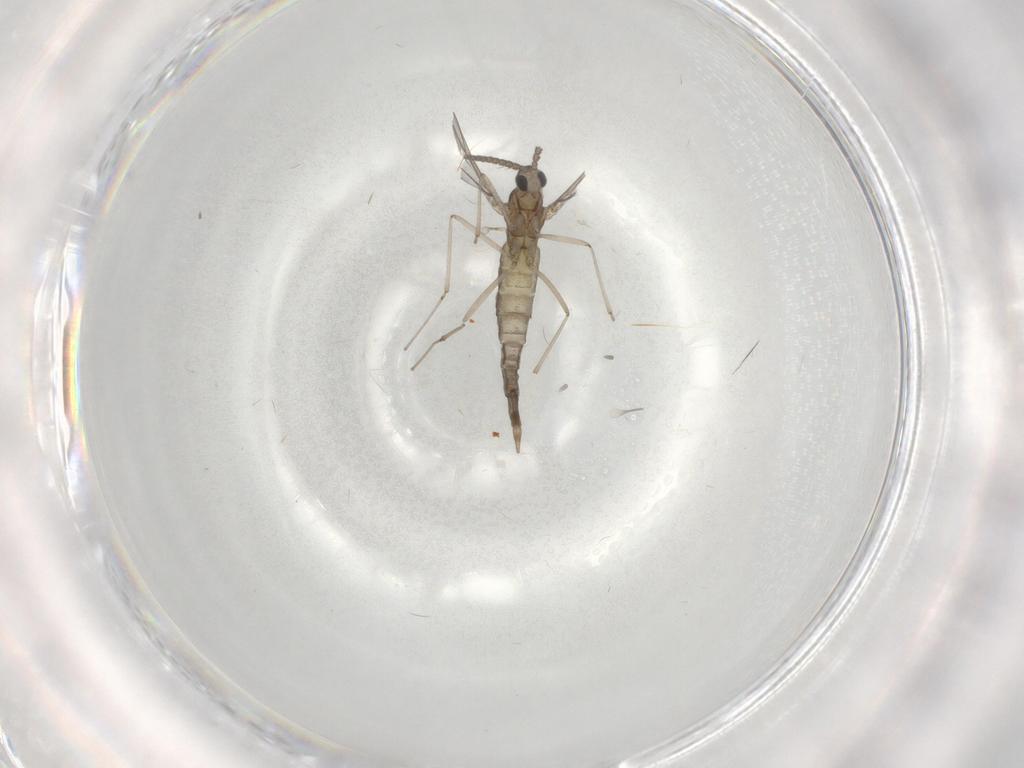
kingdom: Animalia
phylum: Arthropoda
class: Insecta
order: Diptera
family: Cecidomyiidae
